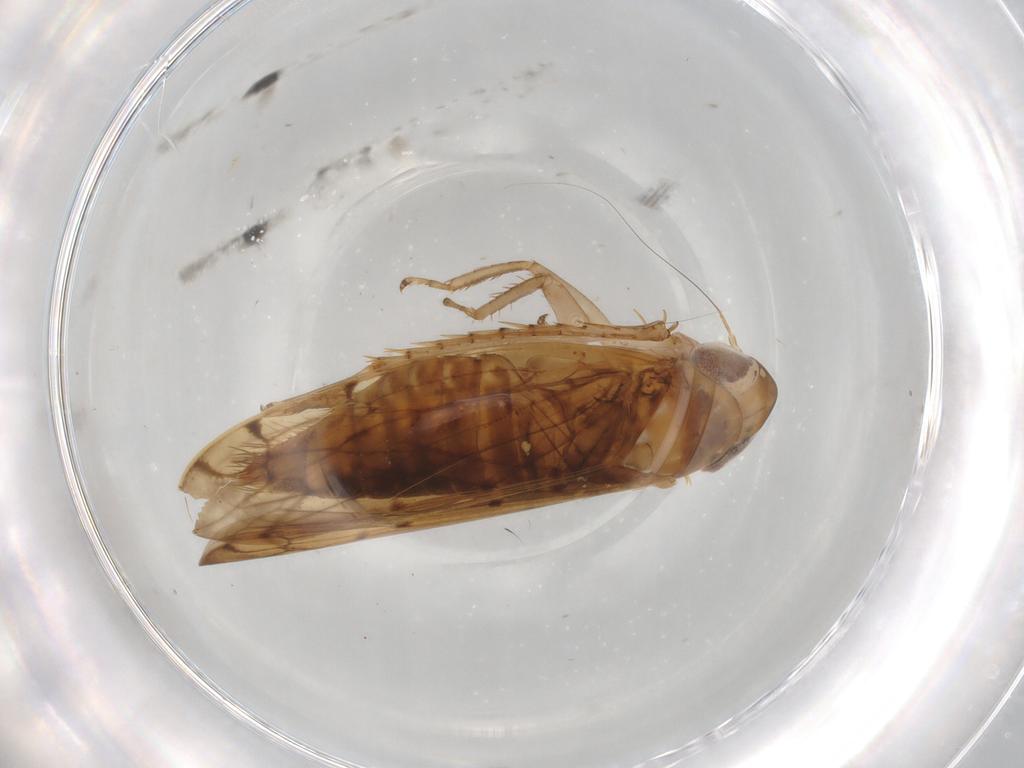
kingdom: Animalia
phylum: Arthropoda
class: Insecta
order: Hemiptera
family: Cicadellidae
